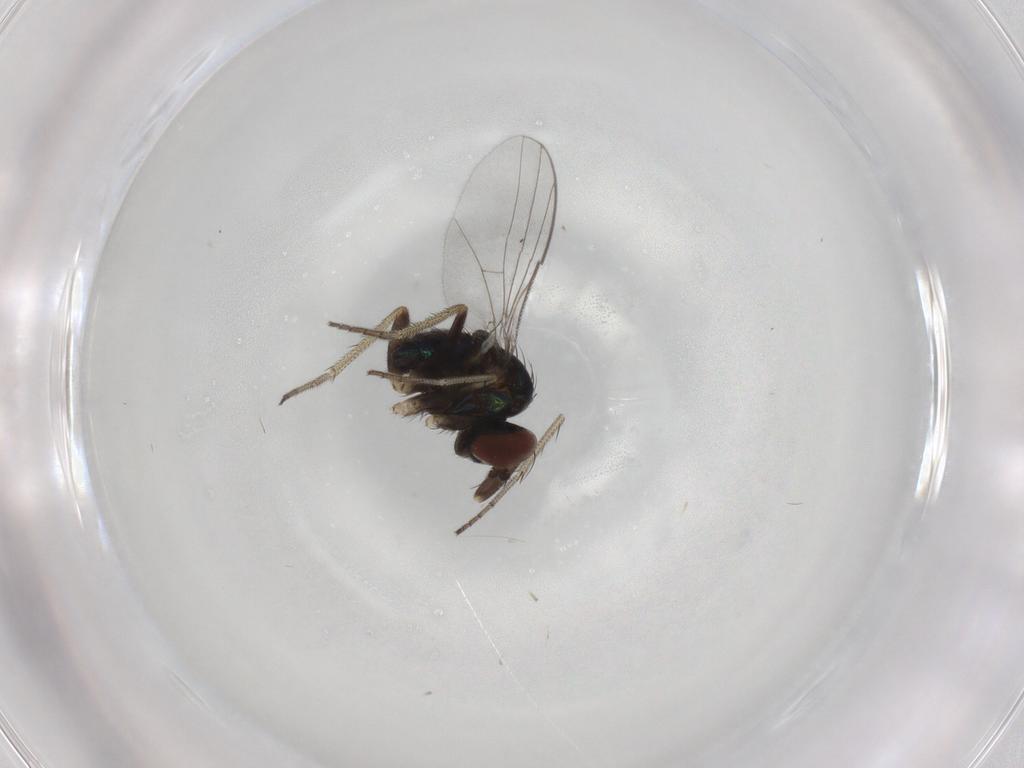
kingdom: Animalia
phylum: Arthropoda
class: Insecta
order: Diptera
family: Dolichopodidae
